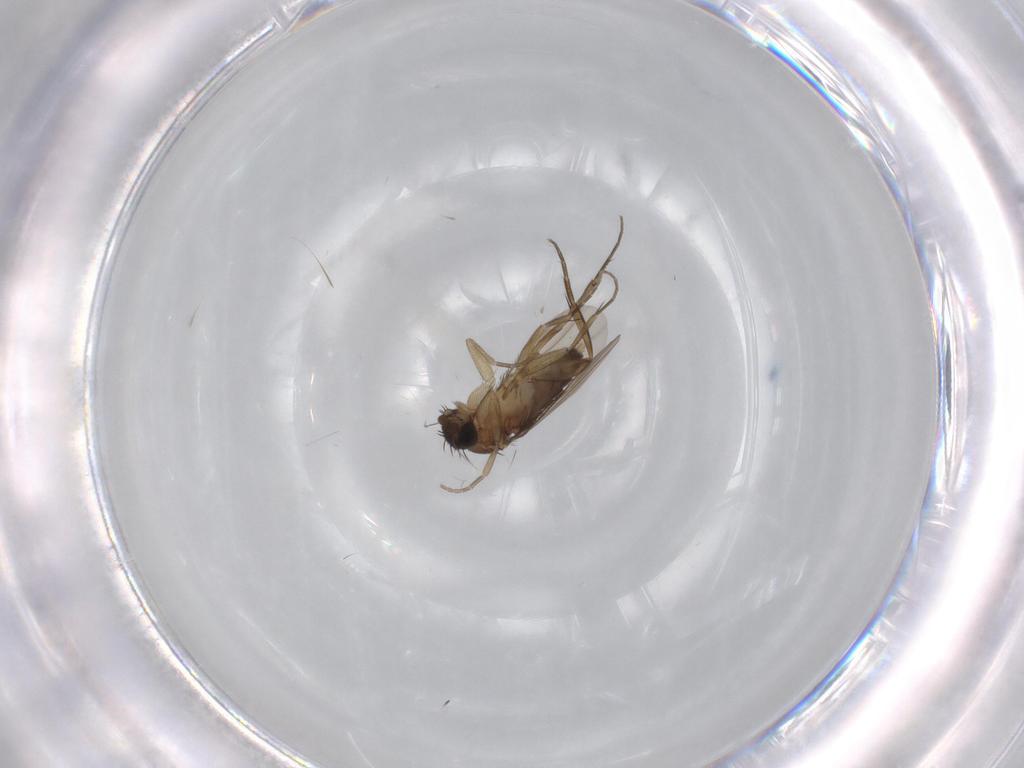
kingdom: Animalia
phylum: Arthropoda
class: Insecta
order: Diptera
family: Phoridae
